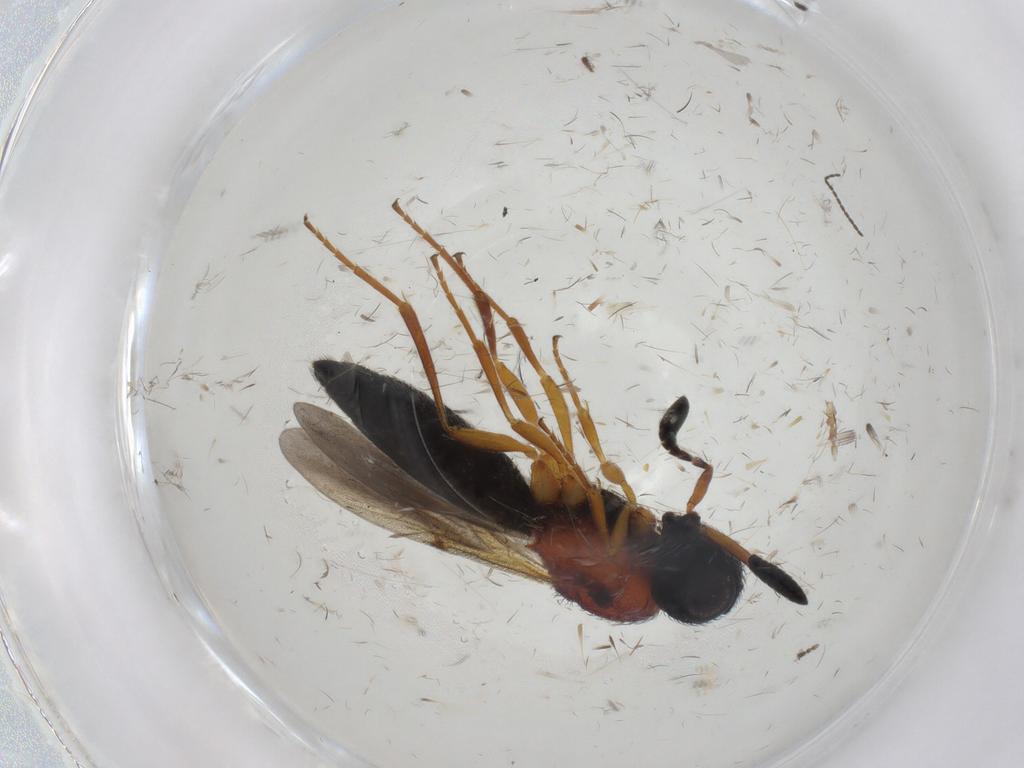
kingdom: Animalia
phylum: Arthropoda
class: Insecta
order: Hymenoptera
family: Scelionidae
